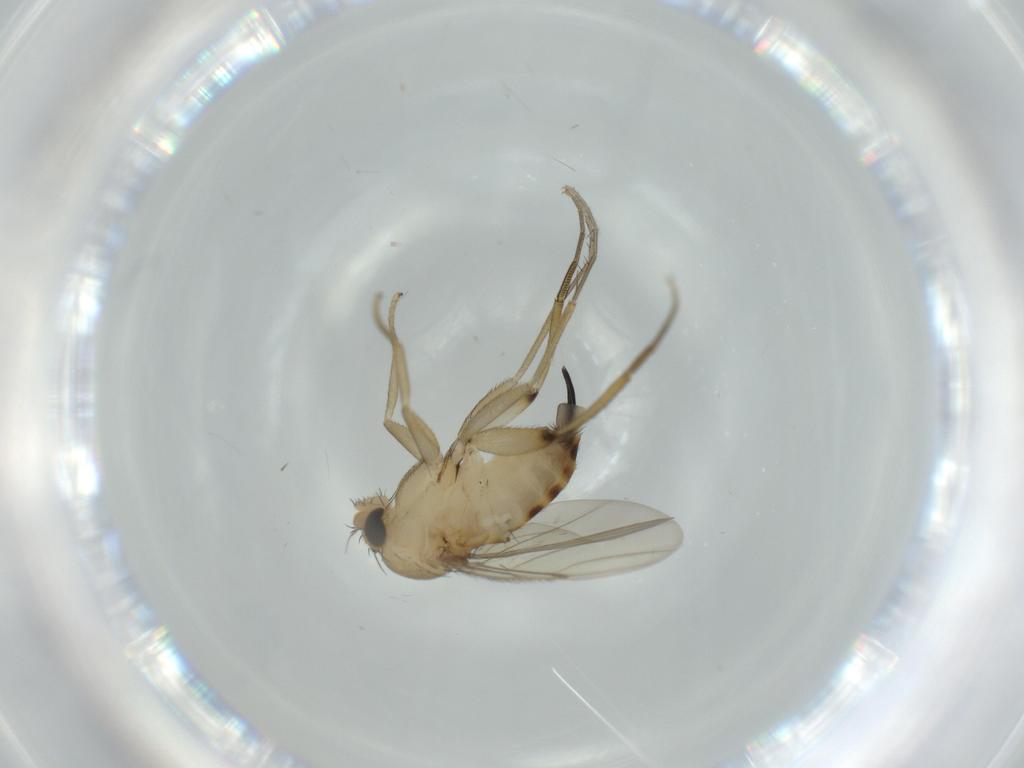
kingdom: Animalia
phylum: Arthropoda
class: Insecta
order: Diptera
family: Phoridae
